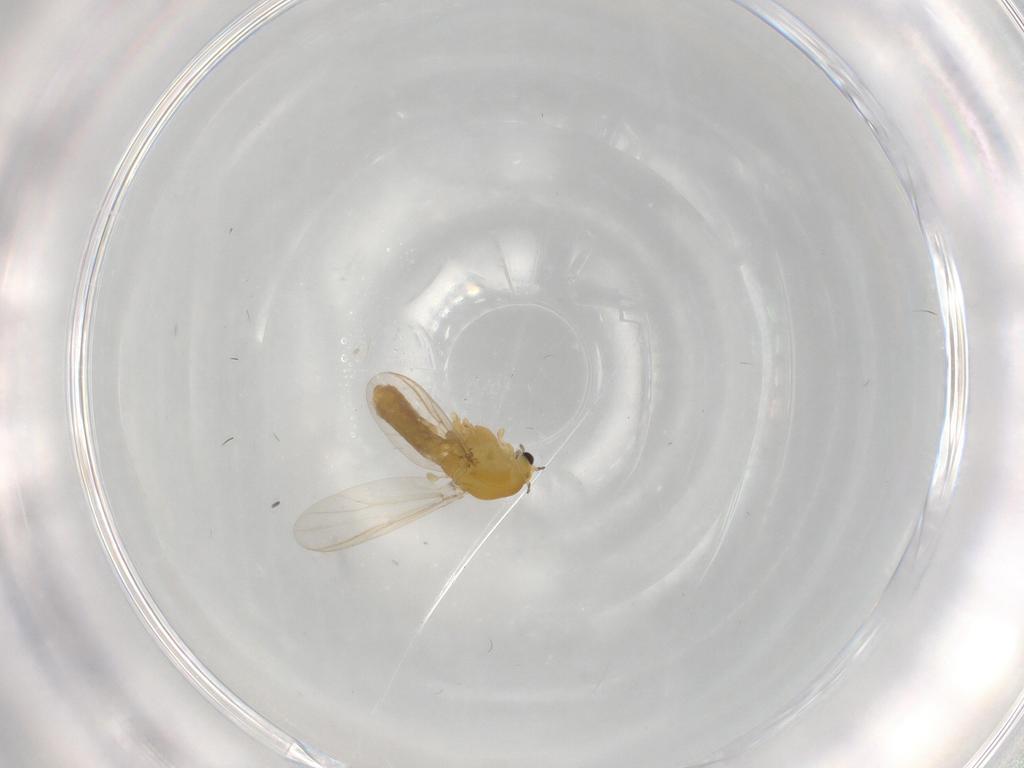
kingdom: Animalia
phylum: Arthropoda
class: Insecta
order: Diptera
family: Chironomidae
